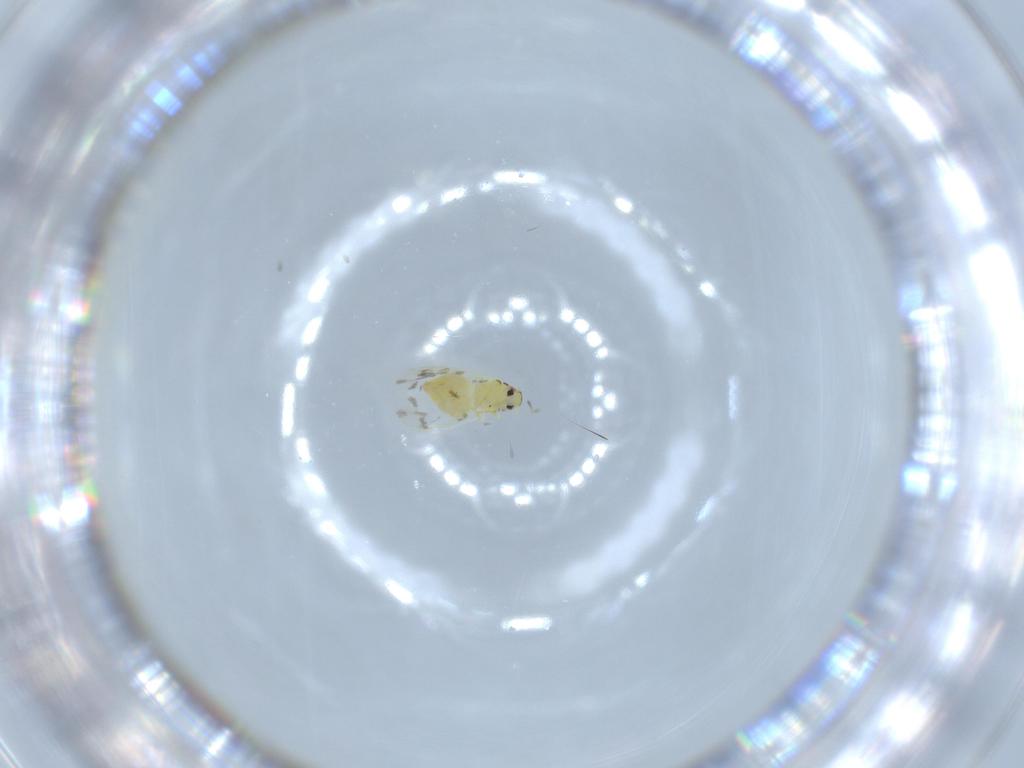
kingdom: Animalia
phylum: Arthropoda
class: Insecta
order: Hemiptera
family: Aleyrodidae
